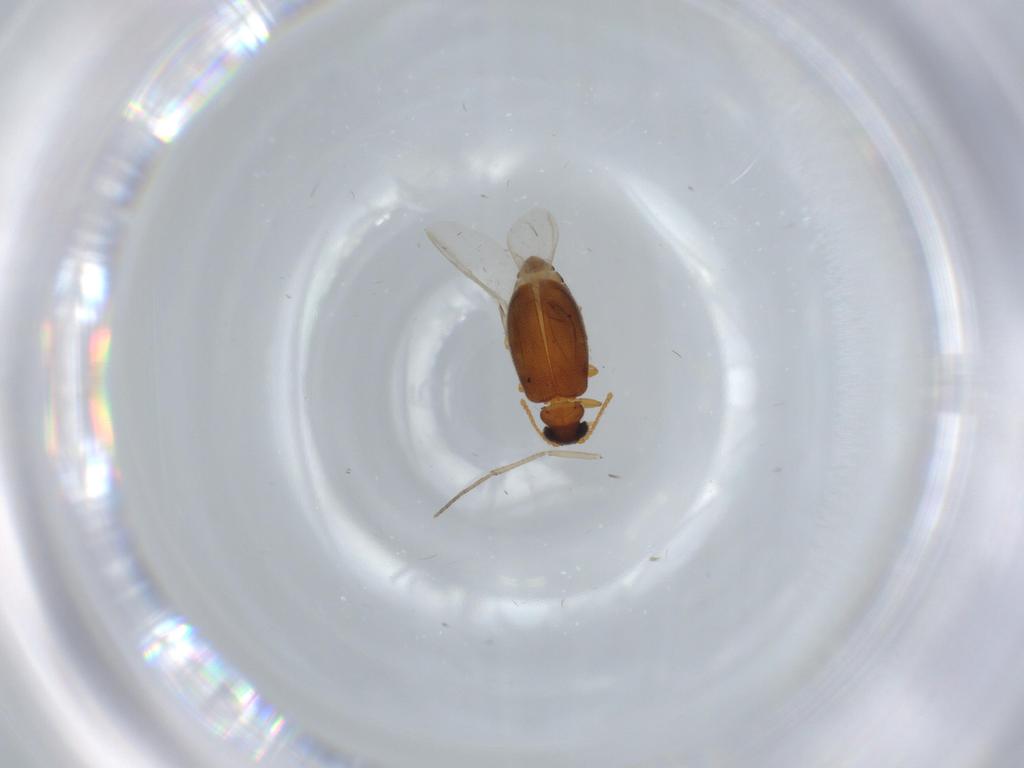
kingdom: Animalia
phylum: Arthropoda
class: Insecta
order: Coleoptera
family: Aderidae
